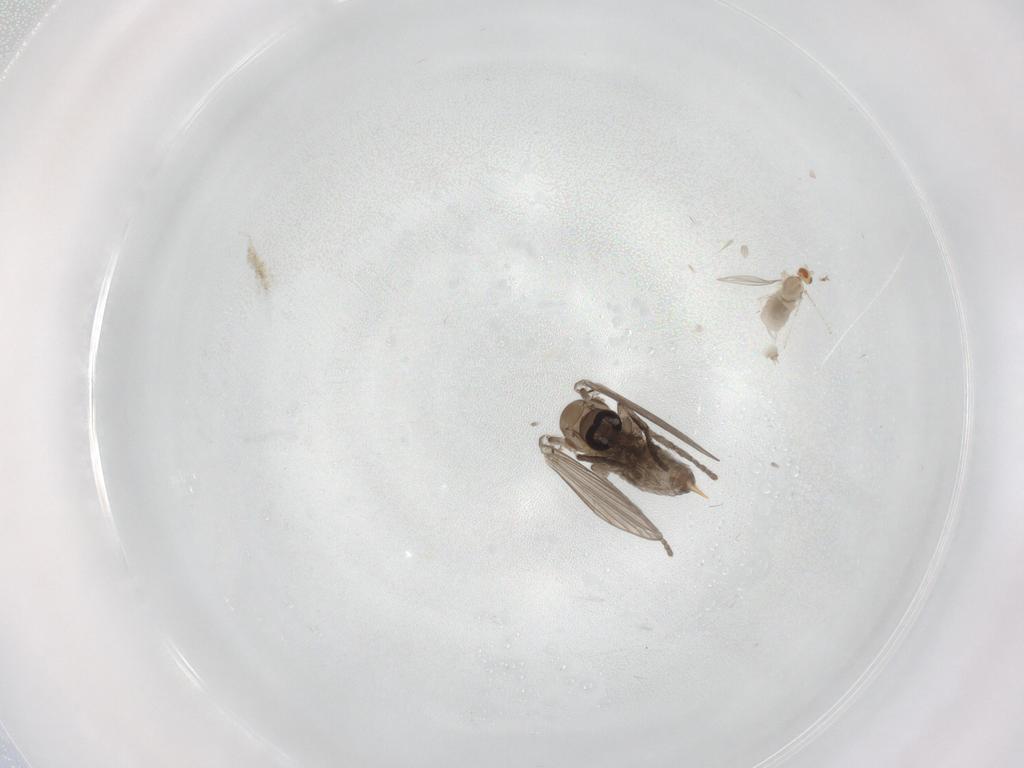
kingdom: Animalia
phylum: Arthropoda
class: Insecta
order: Diptera
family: Psychodidae
